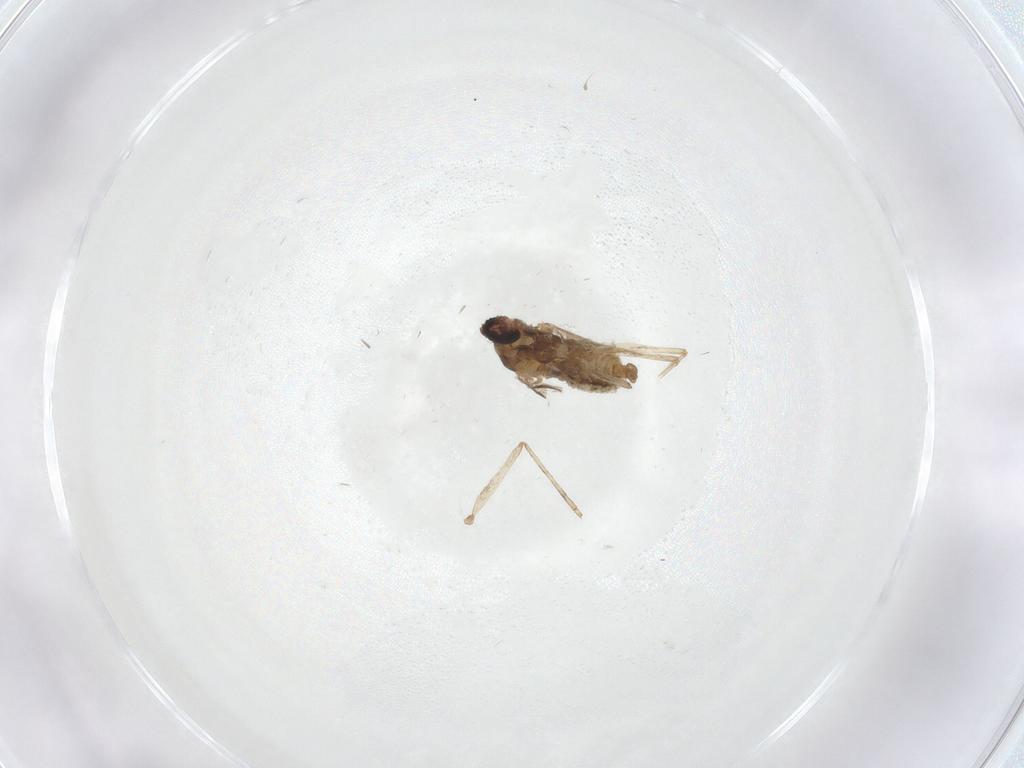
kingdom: Animalia
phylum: Arthropoda
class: Insecta
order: Diptera
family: Cecidomyiidae
